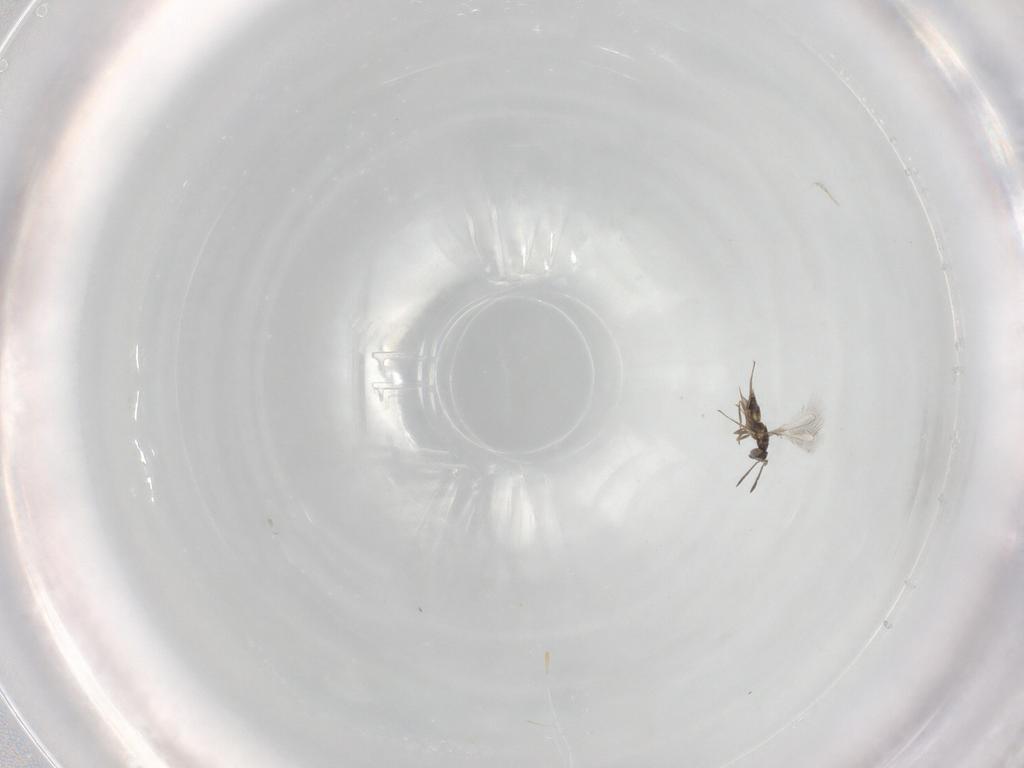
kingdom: Animalia
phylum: Arthropoda
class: Insecta
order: Hymenoptera
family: Mymaridae
